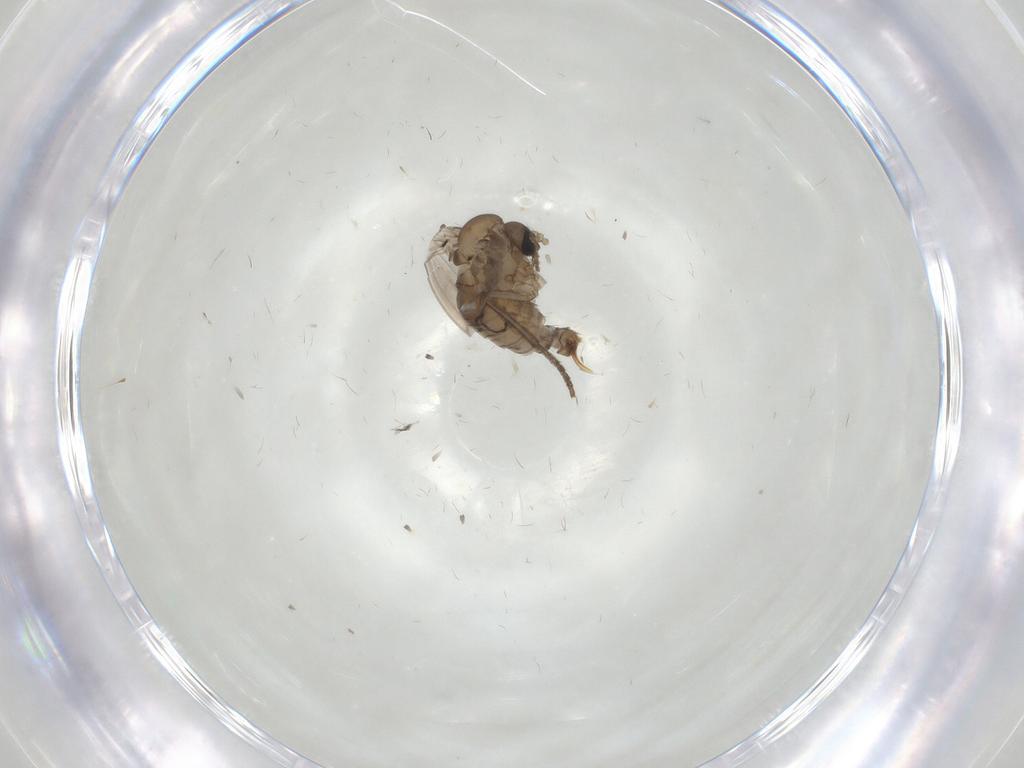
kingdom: Animalia
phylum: Arthropoda
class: Insecta
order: Diptera
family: Psychodidae
